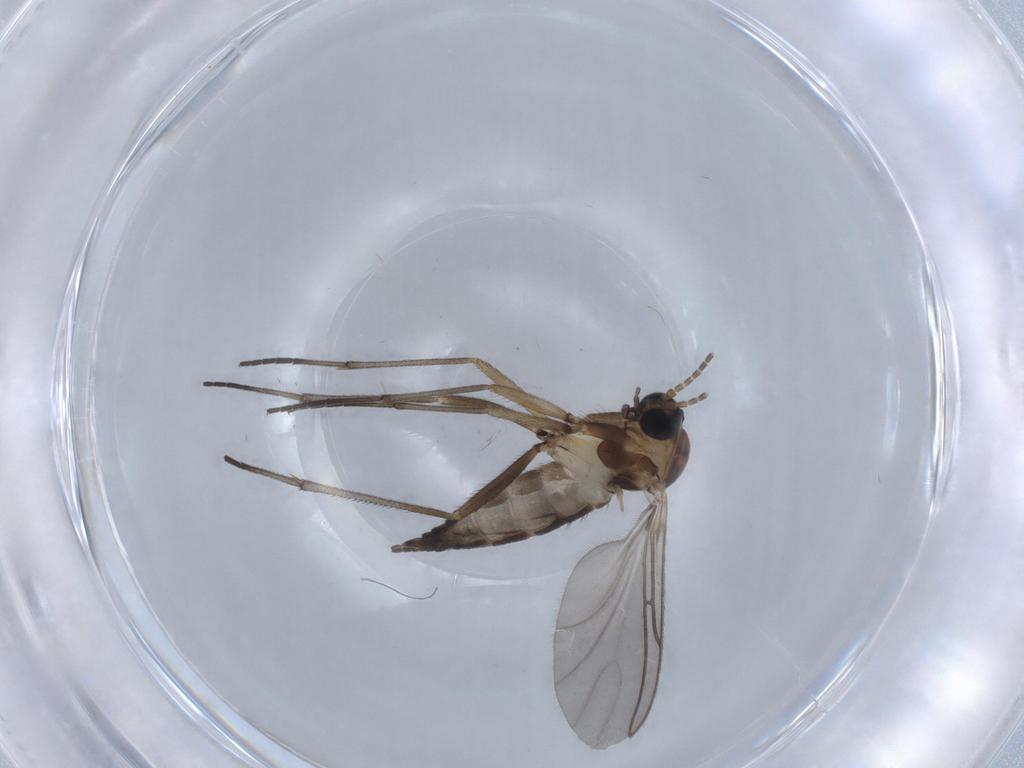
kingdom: Animalia
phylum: Arthropoda
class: Insecta
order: Diptera
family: Sciaridae
